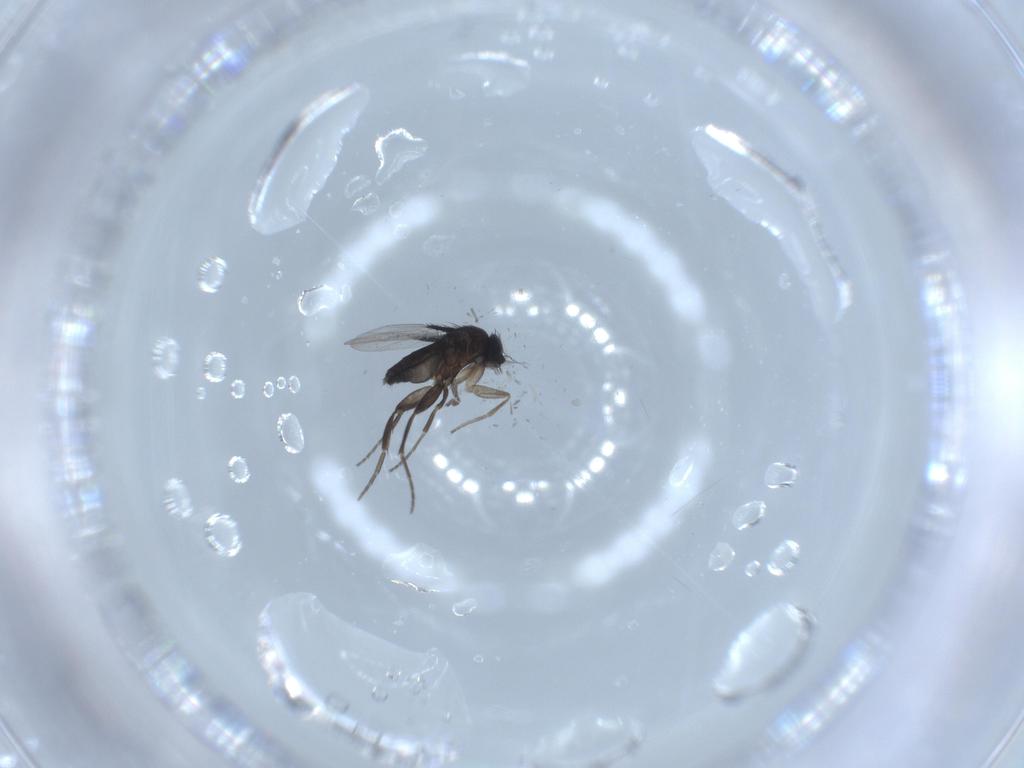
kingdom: Animalia
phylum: Arthropoda
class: Insecta
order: Diptera
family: Phoridae
